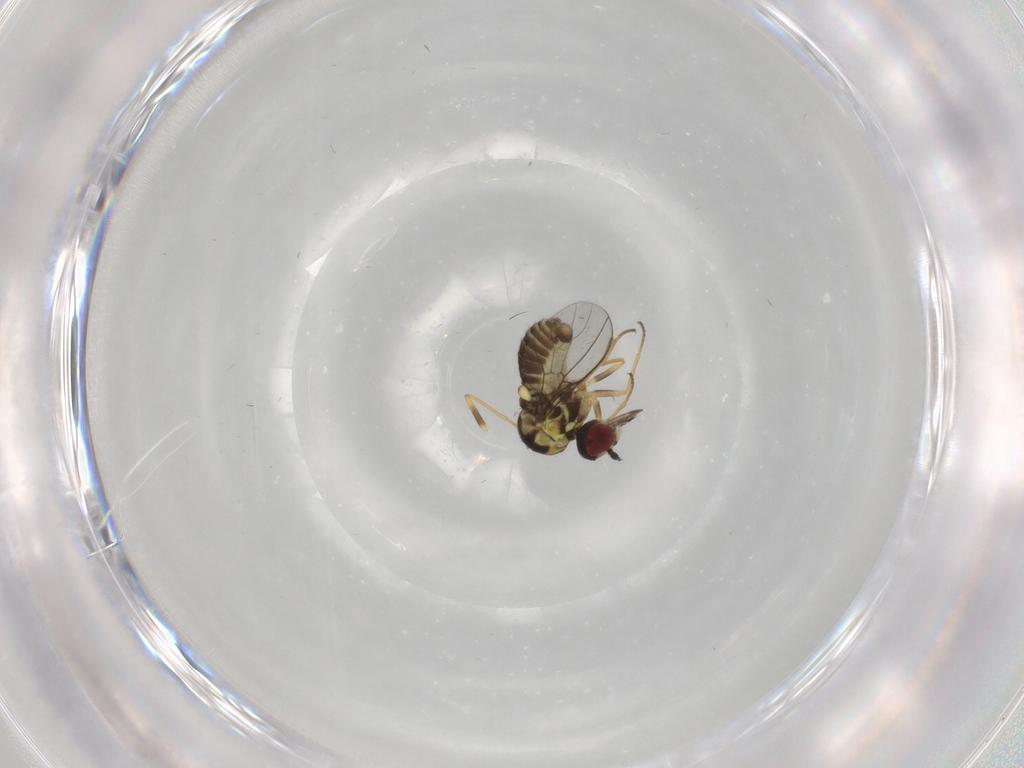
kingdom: Animalia
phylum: Arthropoda
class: Insecta
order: Diptera
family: Bombyliidae
